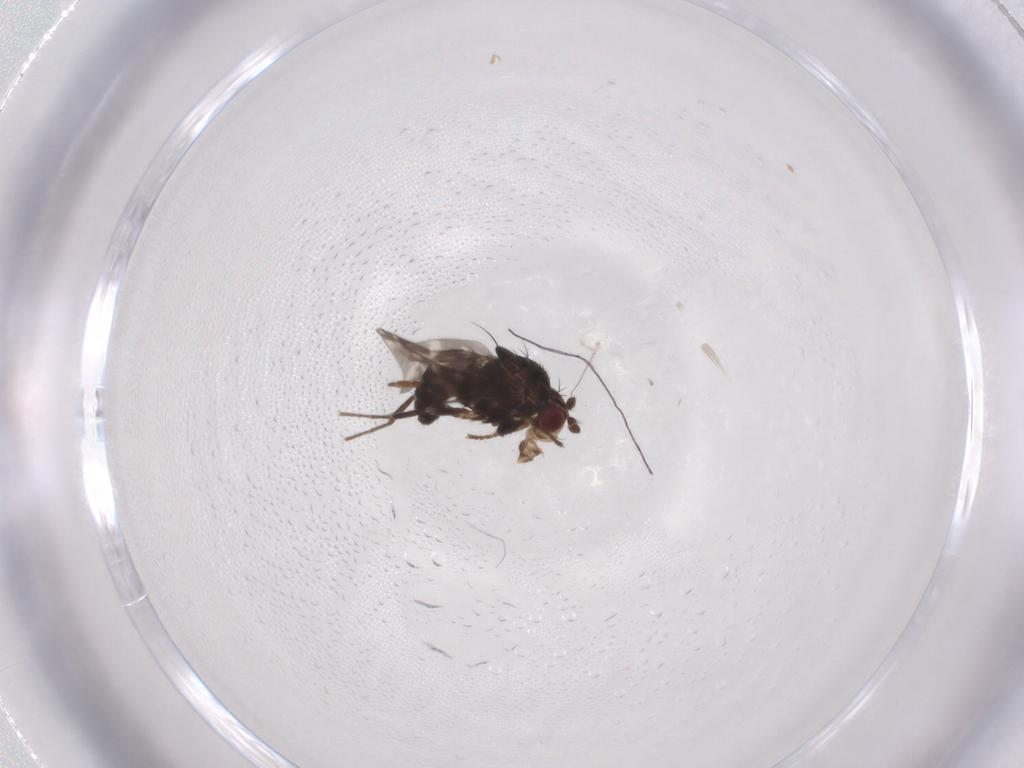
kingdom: Animalia
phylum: Arthropoda
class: Insecta
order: Diptera
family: Sphaeroceridae
